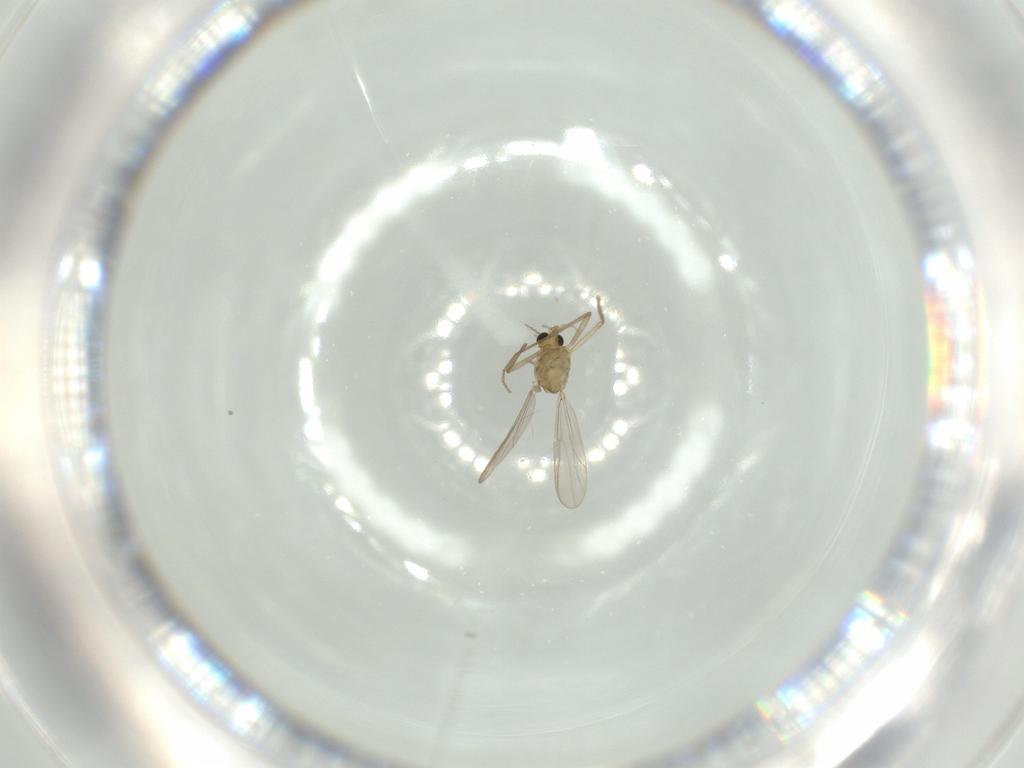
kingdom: Animalia
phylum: Arthropoda
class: Insecta
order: Diptera
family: Chironomidae
